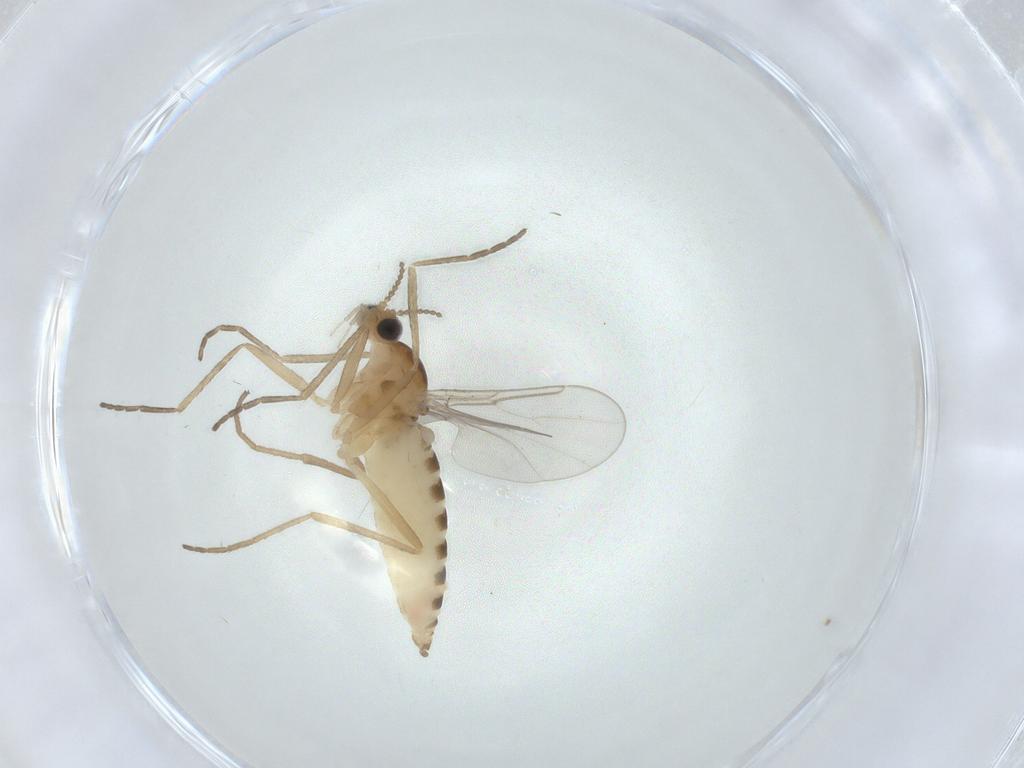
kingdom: Animalia
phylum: Arthropoda
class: Insecta
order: Diptera
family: Cecidomyiidae
